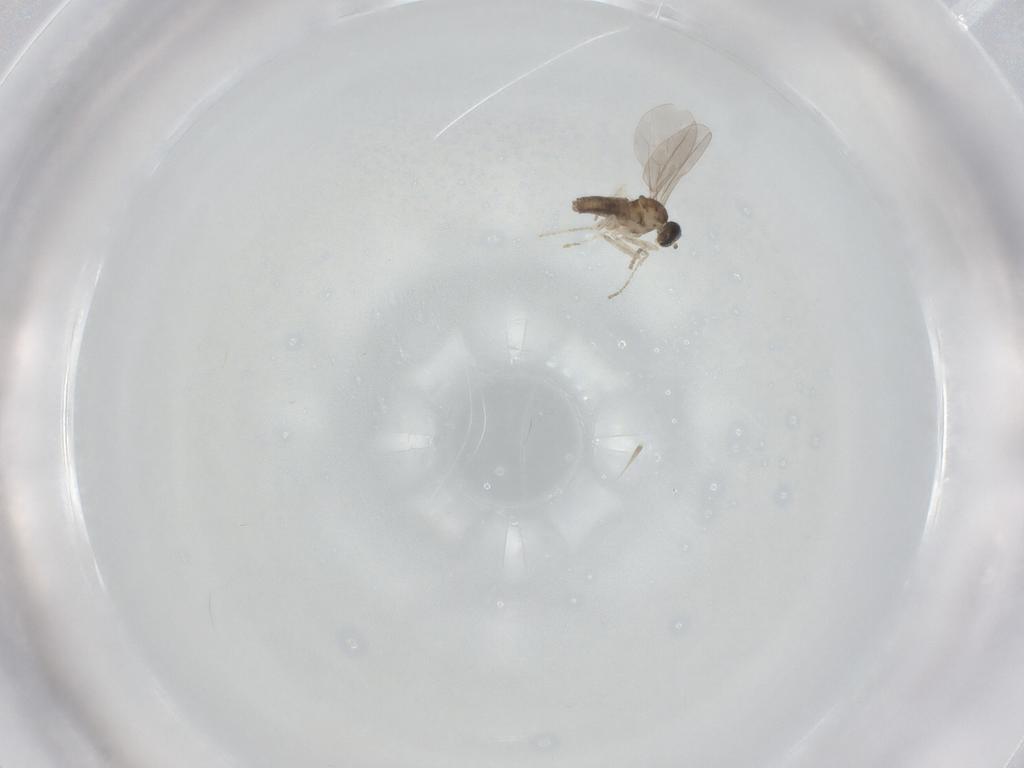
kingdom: Animalia
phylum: Arthropoda
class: Insecta
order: Diptera
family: Cecidomyiidae
